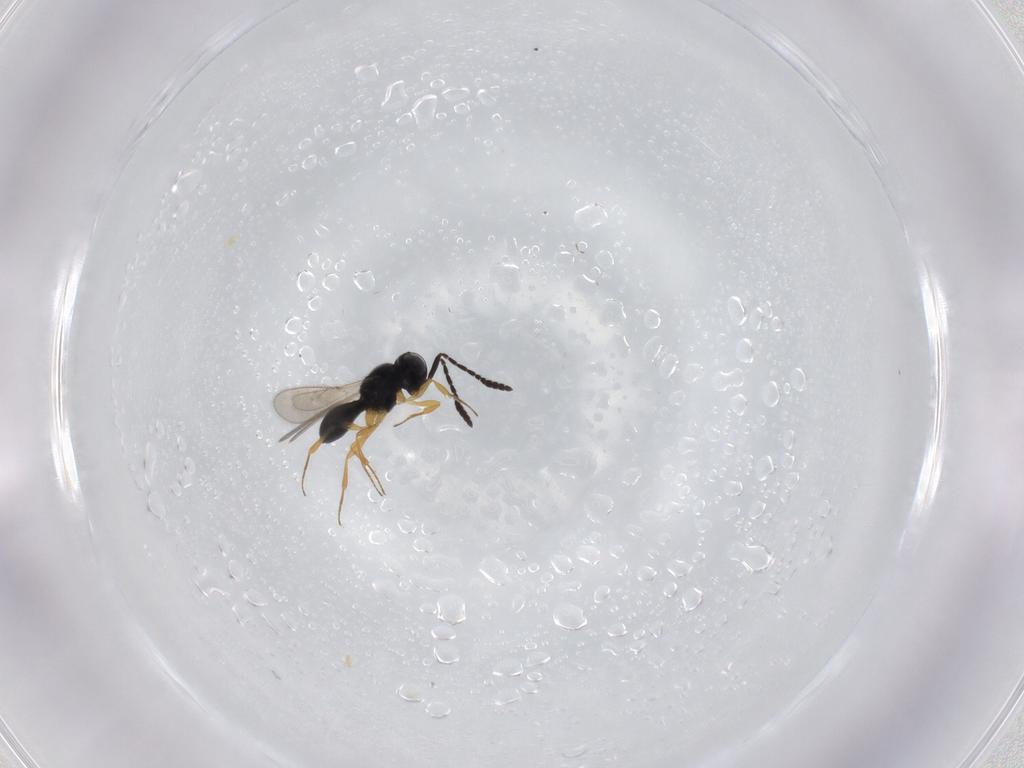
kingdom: Animalia
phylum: Arthropoda
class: Insecta
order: Hymenoptera
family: Scelionidae
